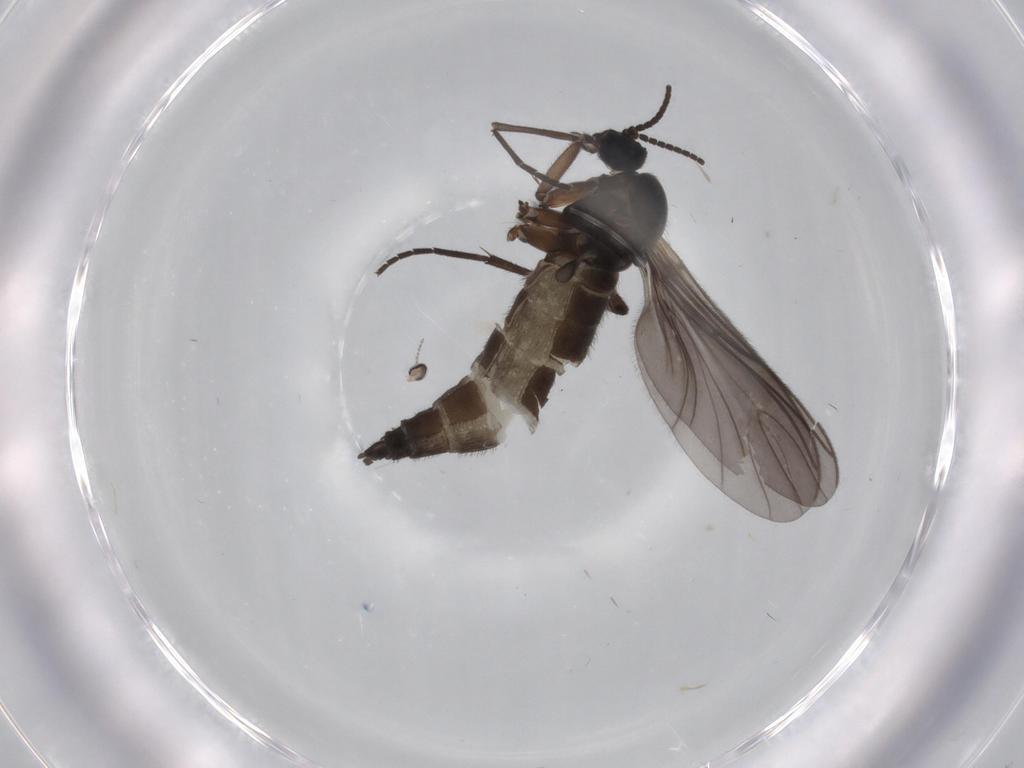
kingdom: Animalia
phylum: Arthropoda
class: Insecta
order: Diptera
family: Sciaridae
